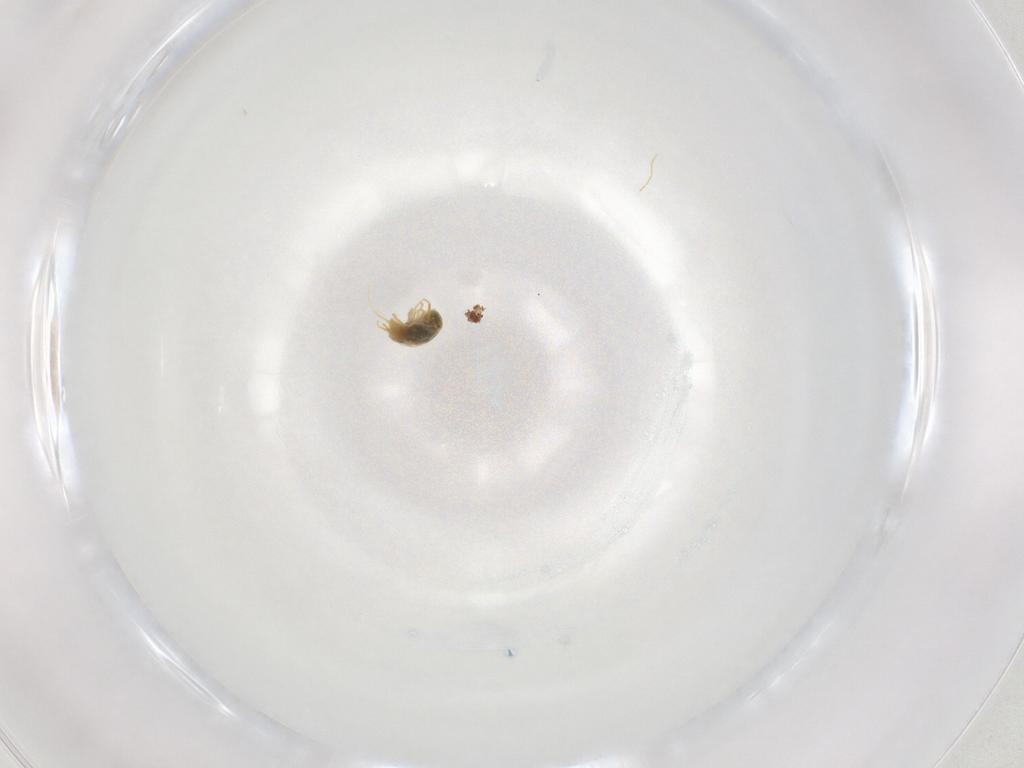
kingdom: Animalia
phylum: Arthropoda
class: Arachnida
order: Trombidiformes
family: Tetranychidae
